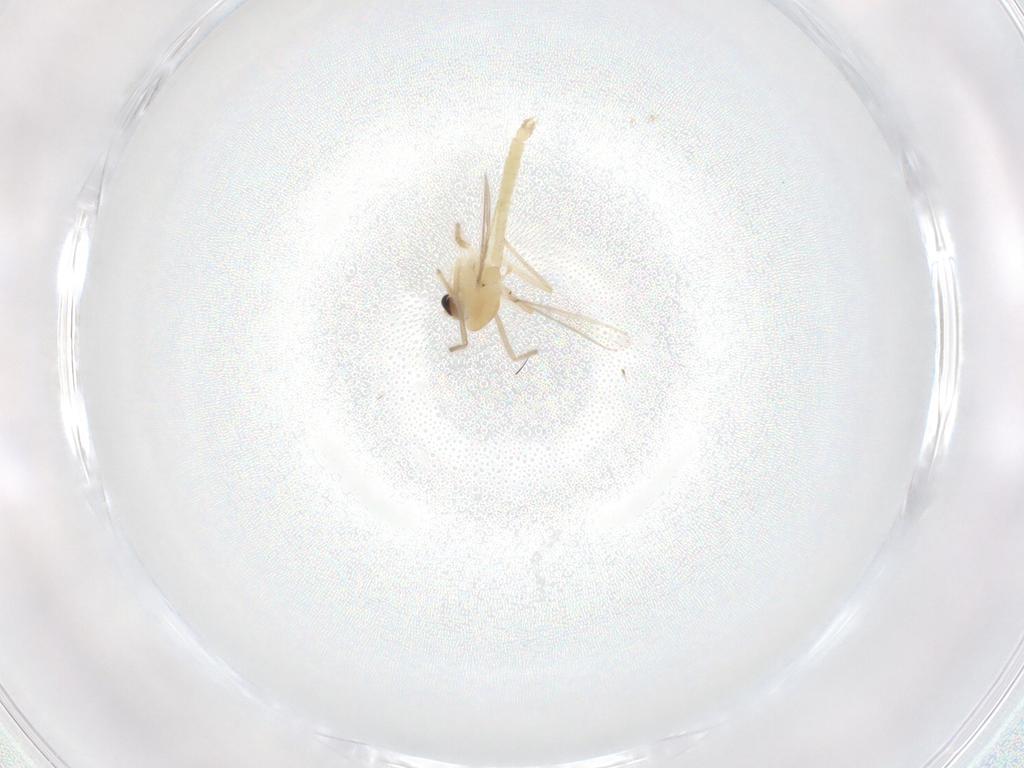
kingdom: Animalia
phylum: Arthropoda
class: Insecta
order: Diptera
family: Chironomidae
